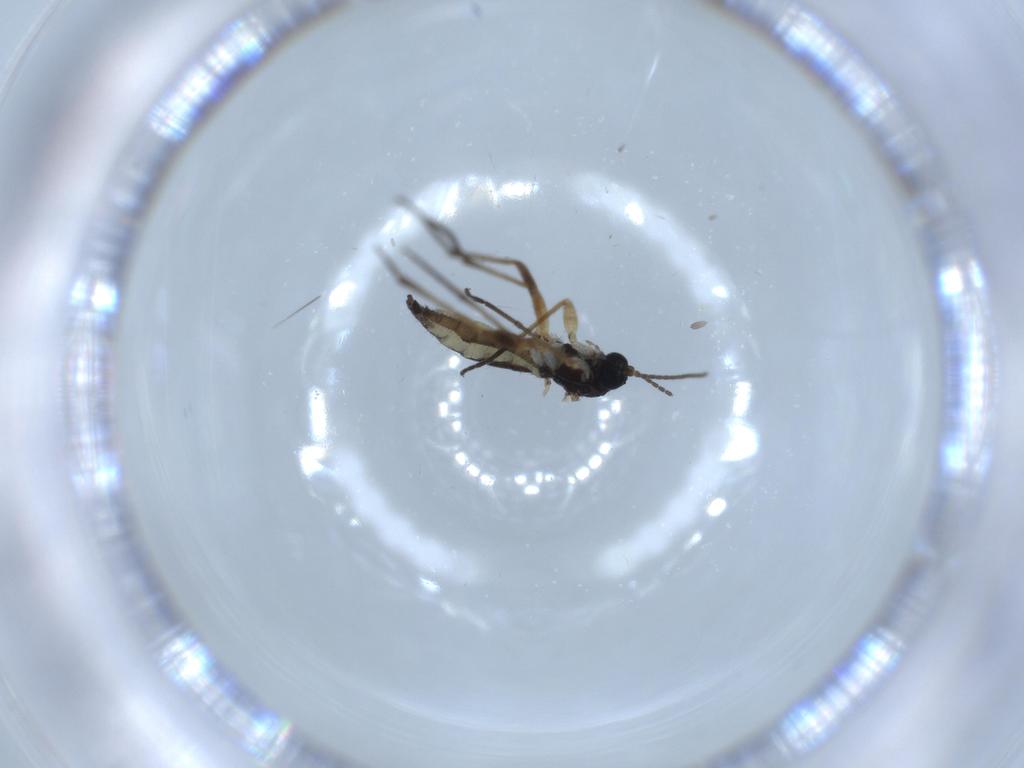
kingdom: Animalia
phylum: Arthropoda
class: Insecta
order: Diptera
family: Sciaridae
